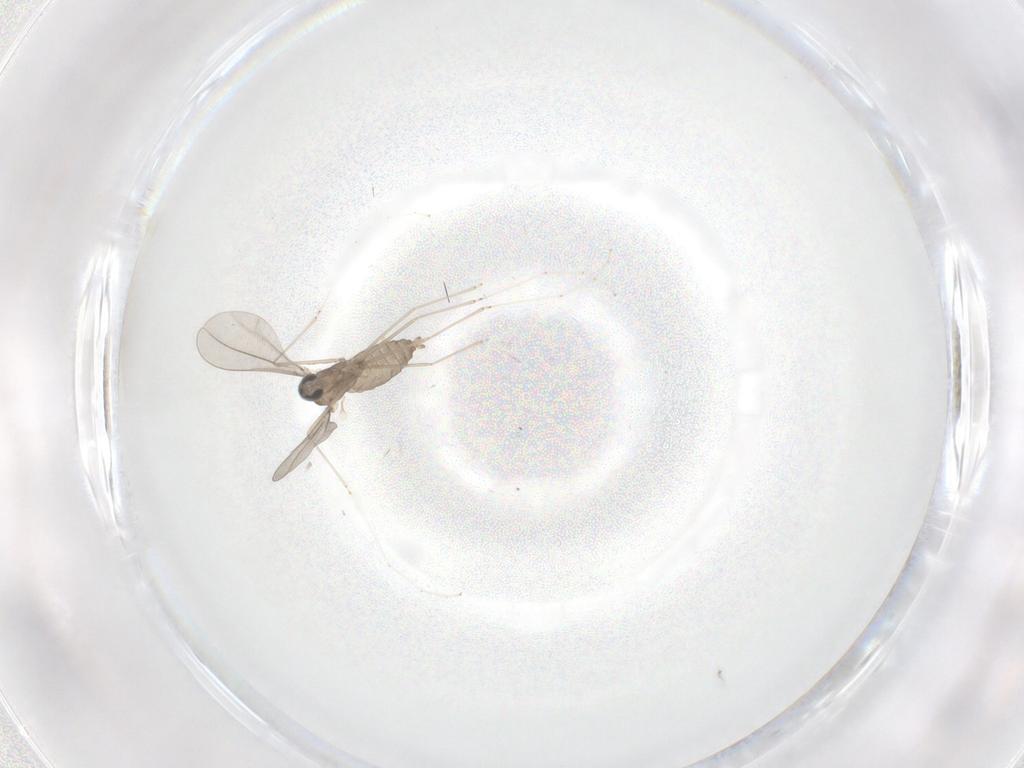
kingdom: Animalia
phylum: Arthropoda
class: Insecta
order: Diptera
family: Cecidomyiidae
